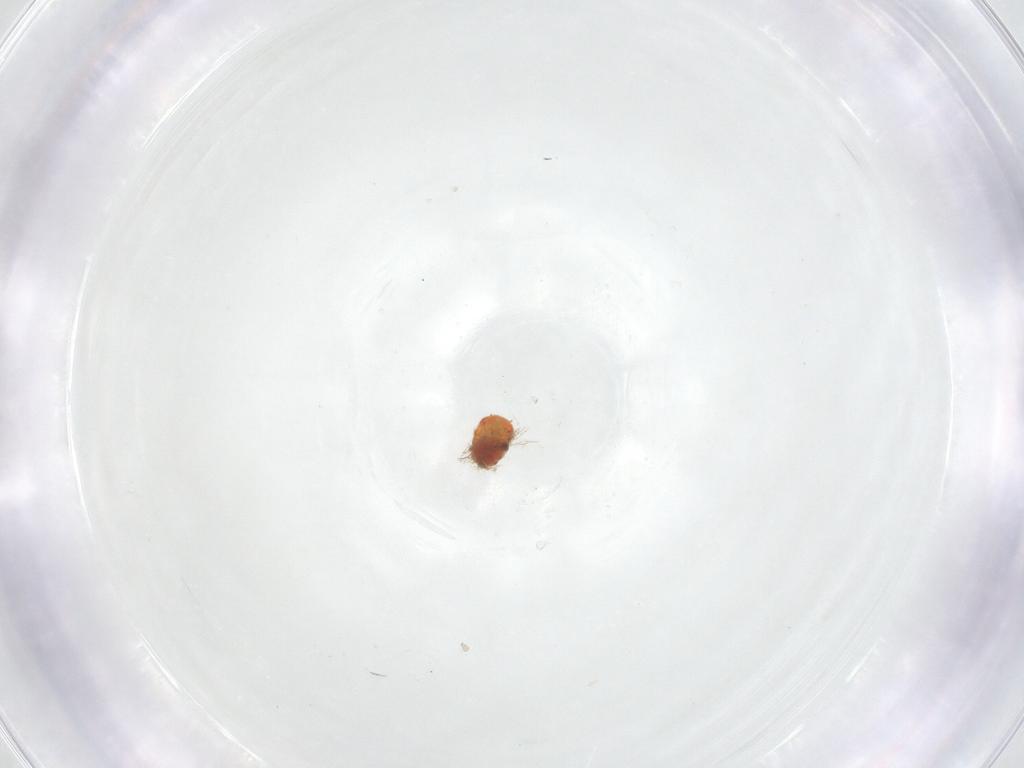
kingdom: Animalia
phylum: Arthropoda
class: Insecta
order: Hemiptera
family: Triozidae
